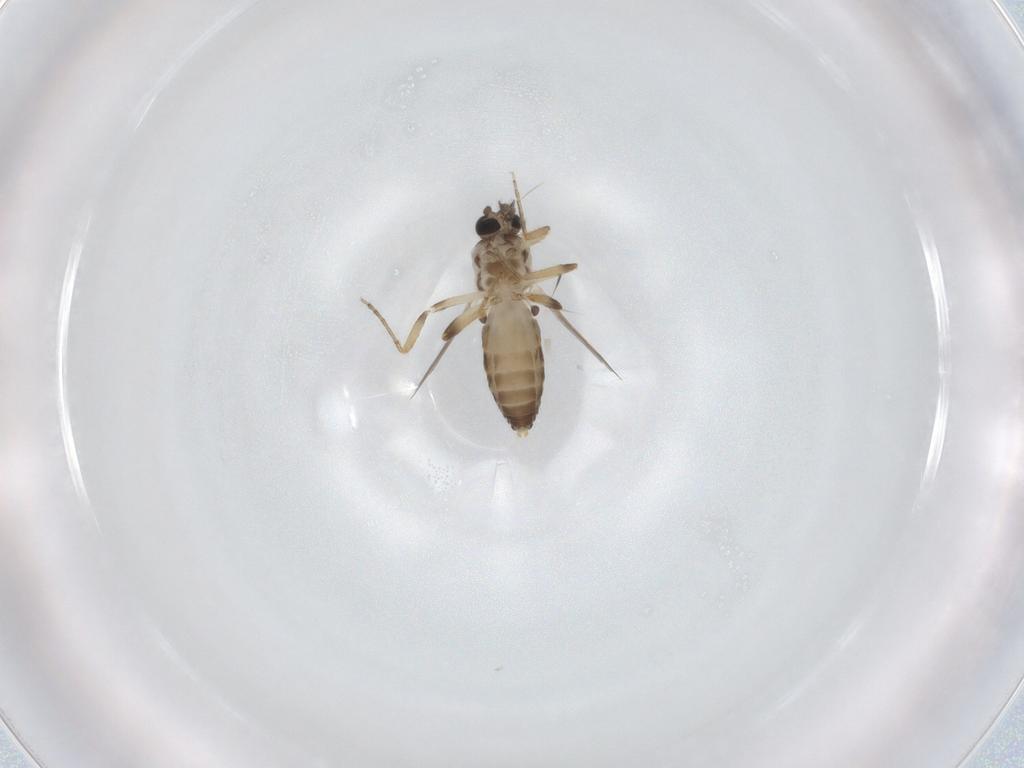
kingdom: Animalia
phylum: Arthropoda
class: Insecta
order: Diptera
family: Ceratopogonidae
